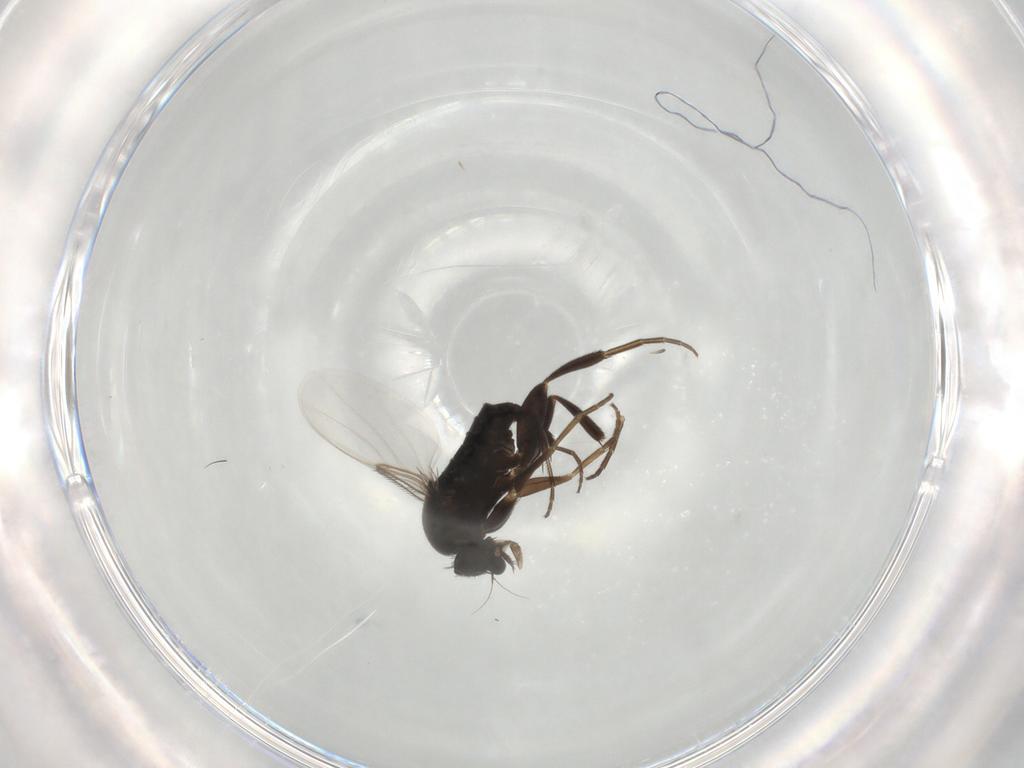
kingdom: Animalia
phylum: Arthropoda
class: Insecta
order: Diptera
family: Phoridae
